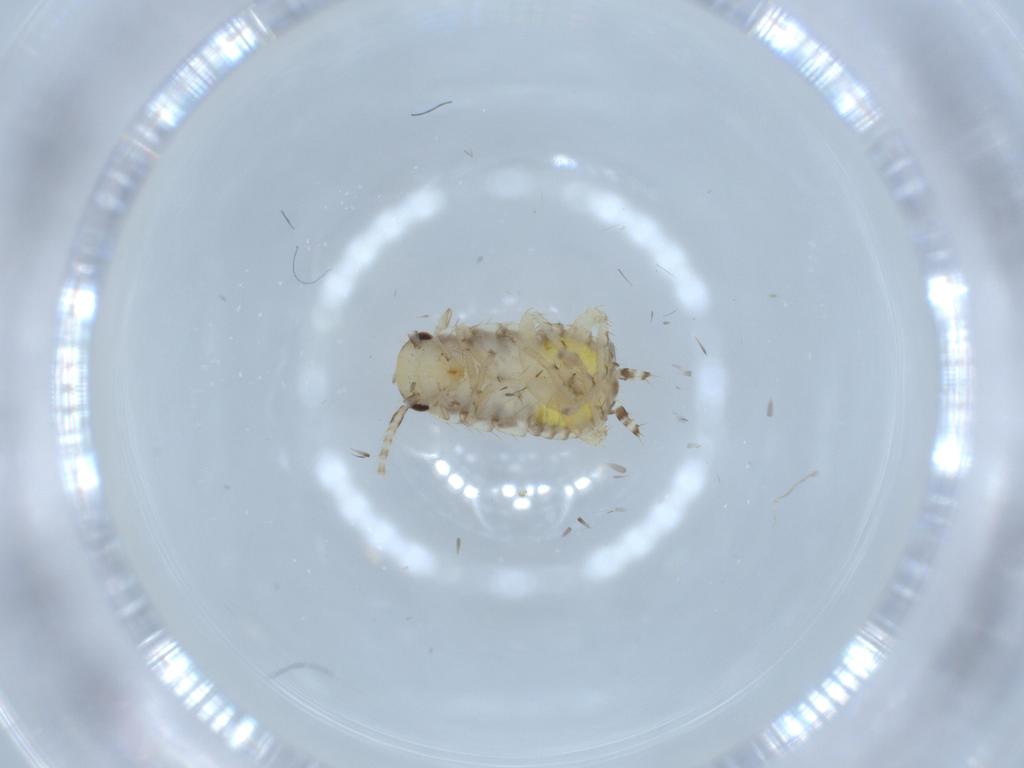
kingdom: Animalia
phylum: Arthropoda
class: Insecta
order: Blattodea
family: Ectobiidae
